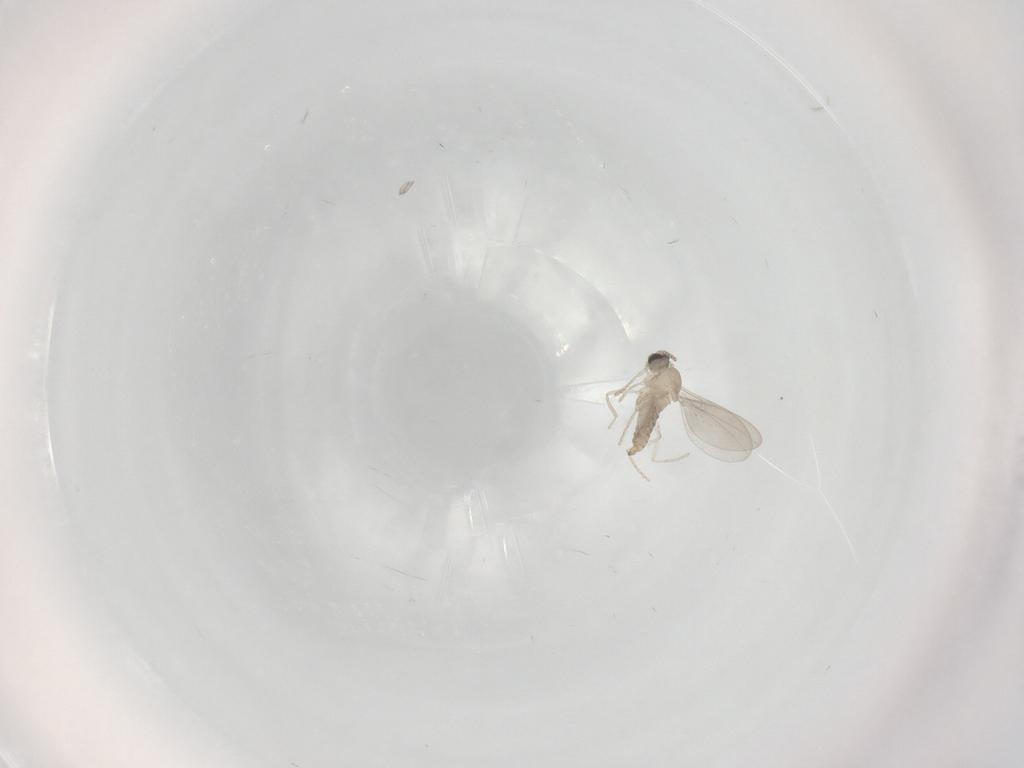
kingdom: Animalia
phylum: Arthropoda
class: Insecta
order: Diptera
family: Cecidomyiidae
